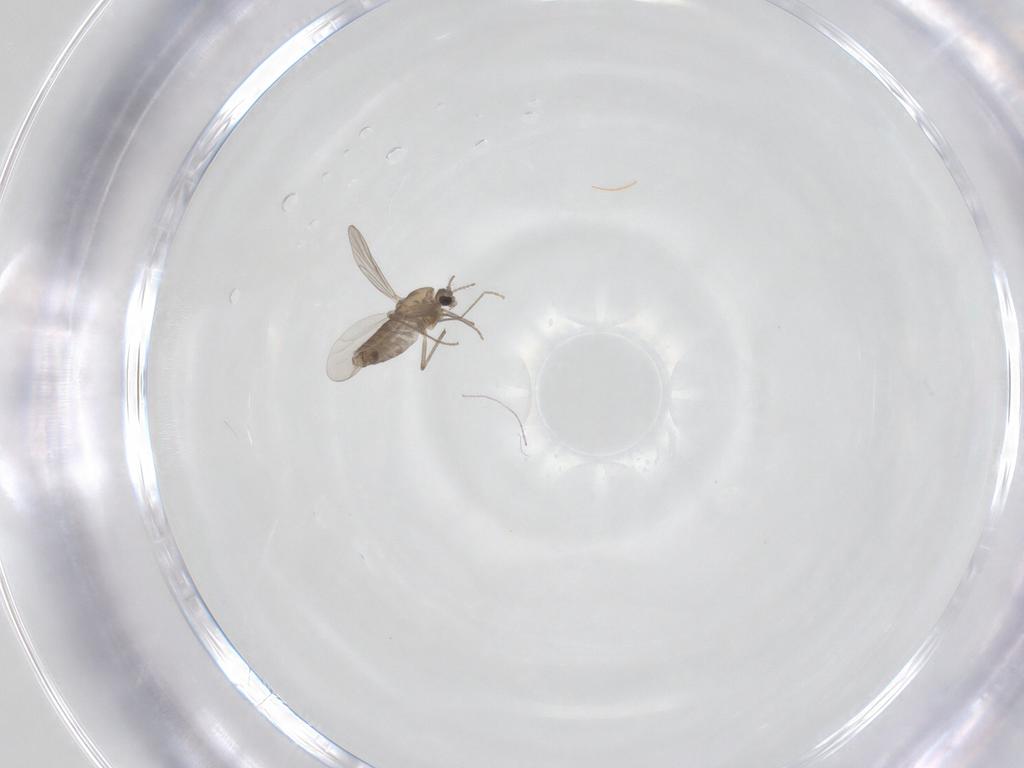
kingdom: Animalia
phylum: Arthropoda
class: Insecta
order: Diptera
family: Chironomidae
